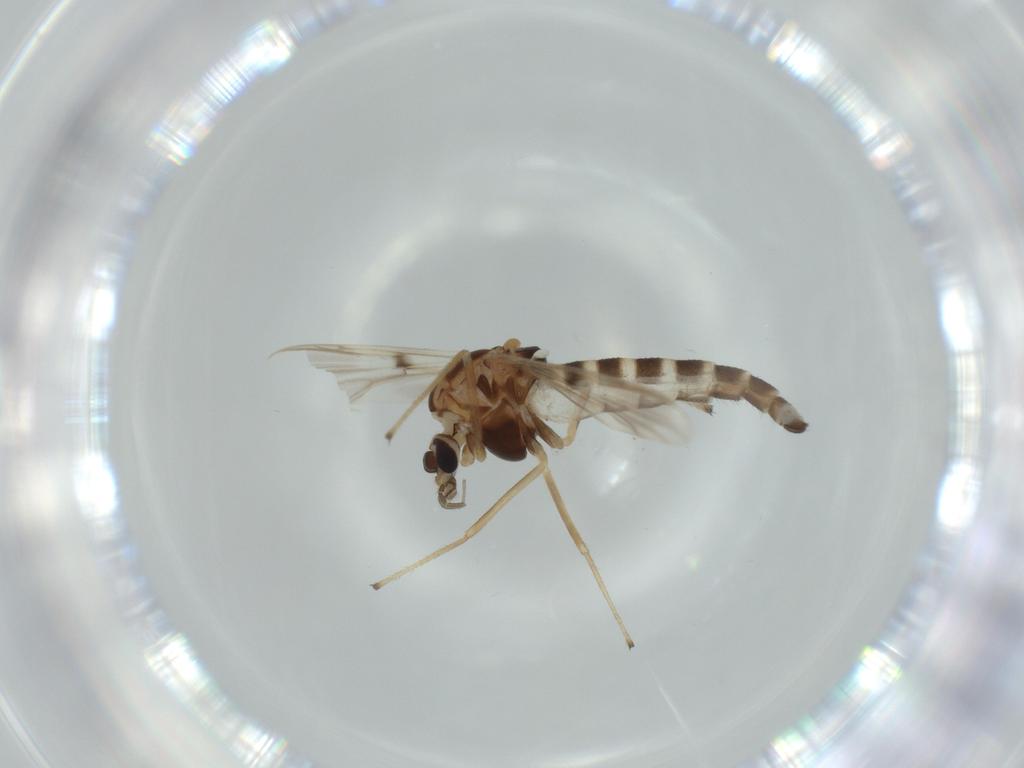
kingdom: Animalia
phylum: Arthropoda
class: Insecta
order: Diptera
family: Chironomidae
